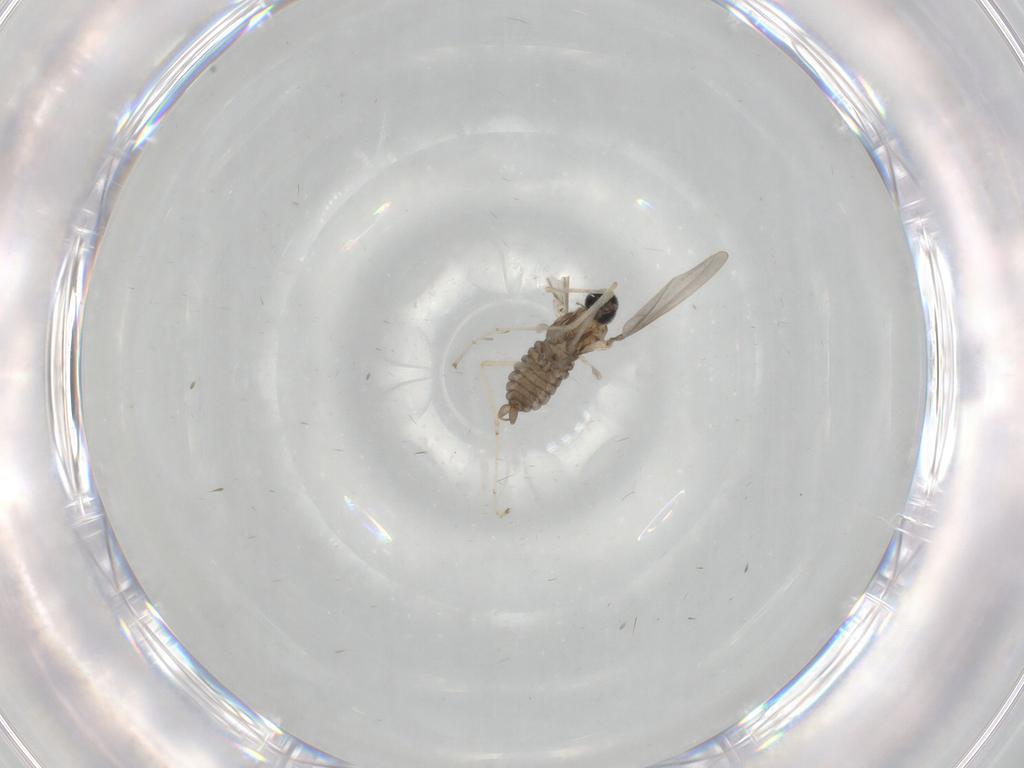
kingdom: Animalia
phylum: Arthropoda
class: Insecta
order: Diptera
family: Cecidomyiidae
